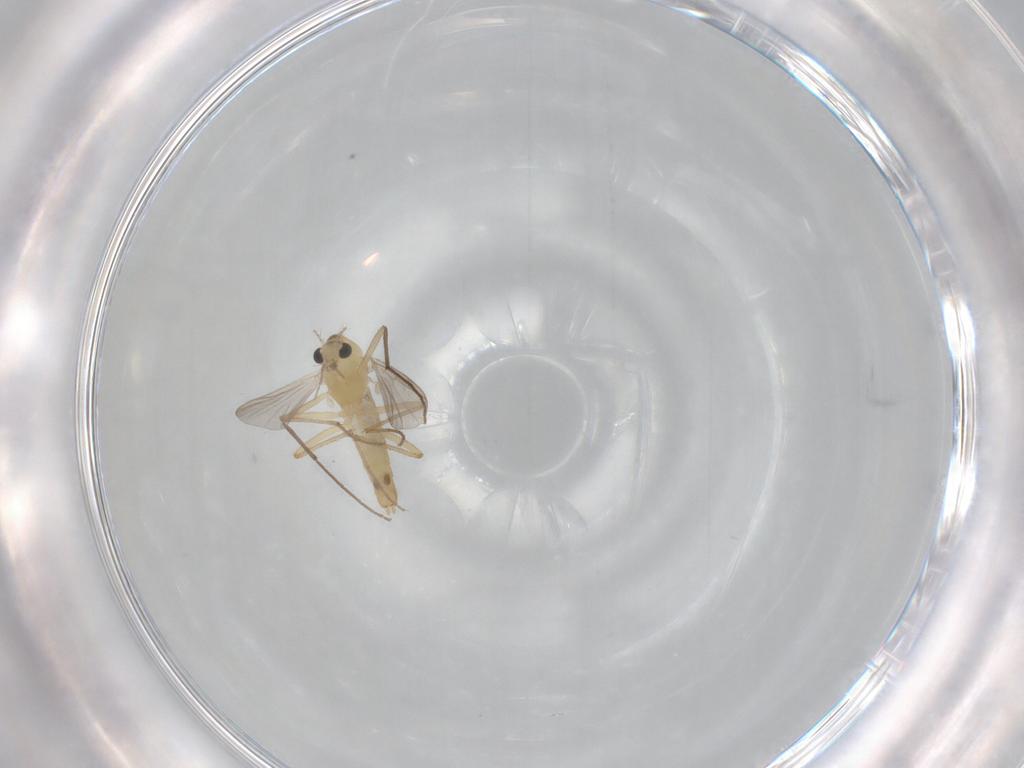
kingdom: Animalia
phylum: Arthropoda
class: Insecta
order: Diptera
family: Chironomidae
